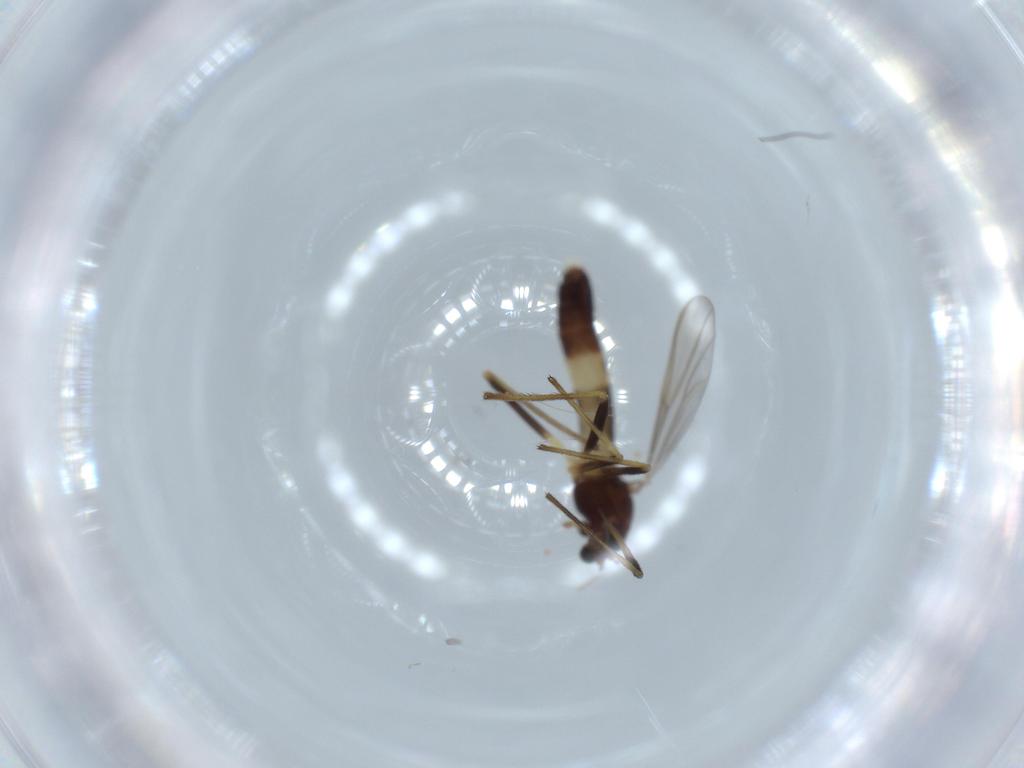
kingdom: Animalia
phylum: Arthropoda
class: Insecta
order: Diptera
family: Chironomidae
